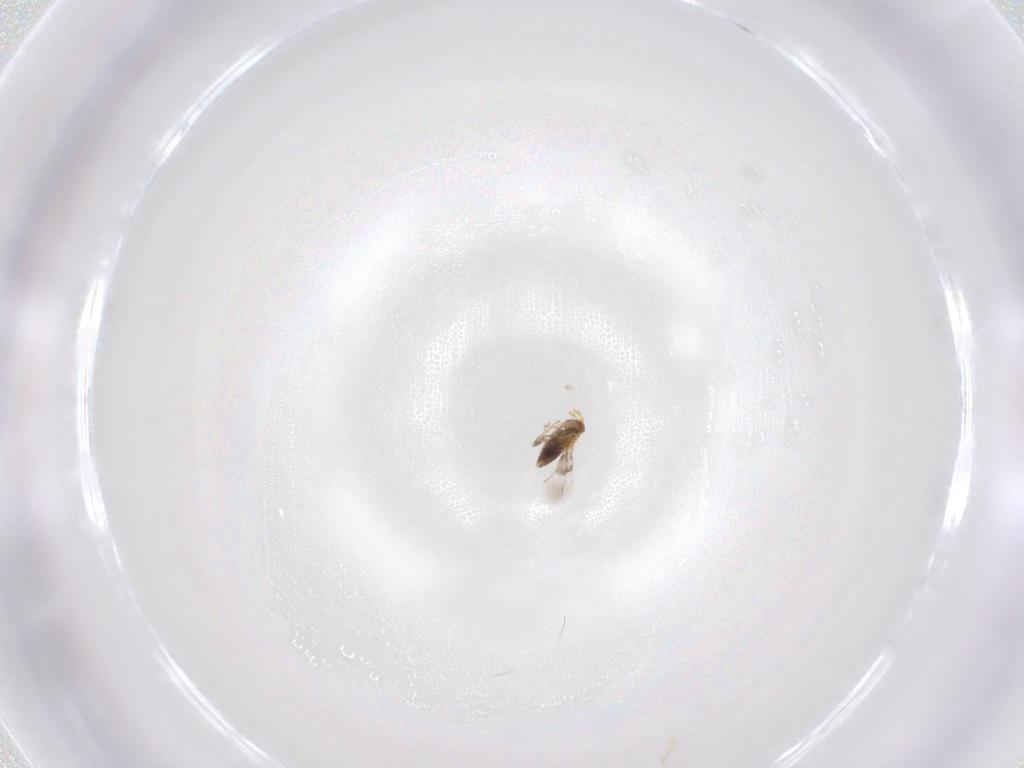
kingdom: Animalia
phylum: Arthropoda
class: Insecta
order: Hymenoptera
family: Trichogrammatidae
